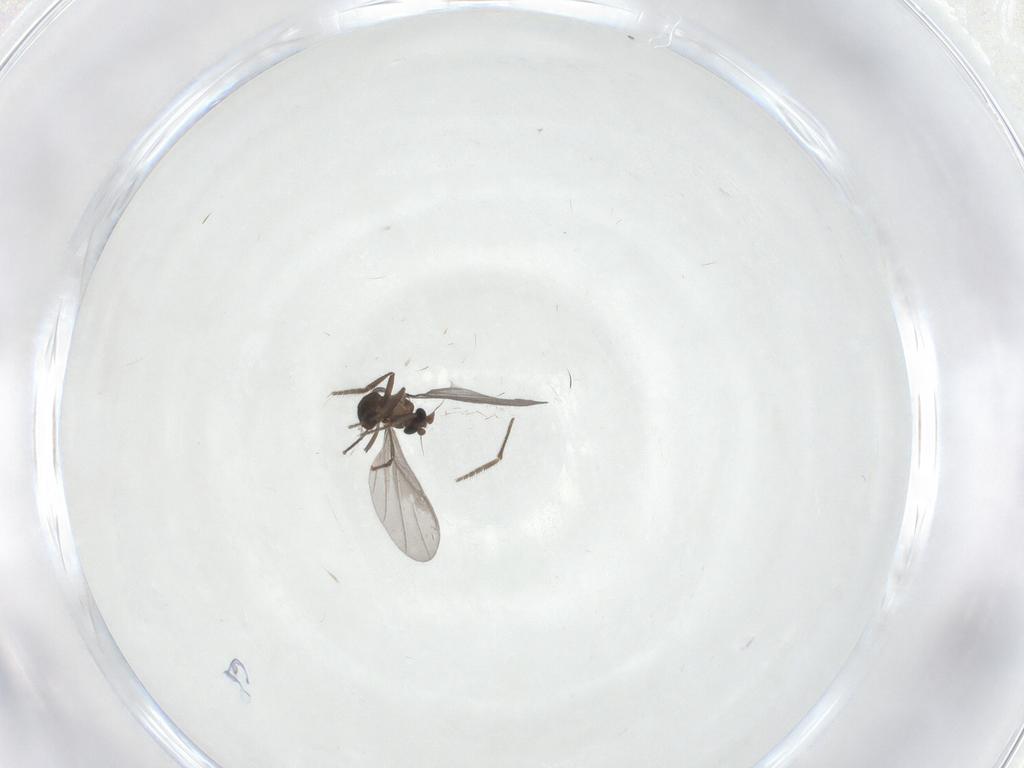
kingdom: Animalia
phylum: Arthropoda
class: Insecta
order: Diptera
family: Phoridae
